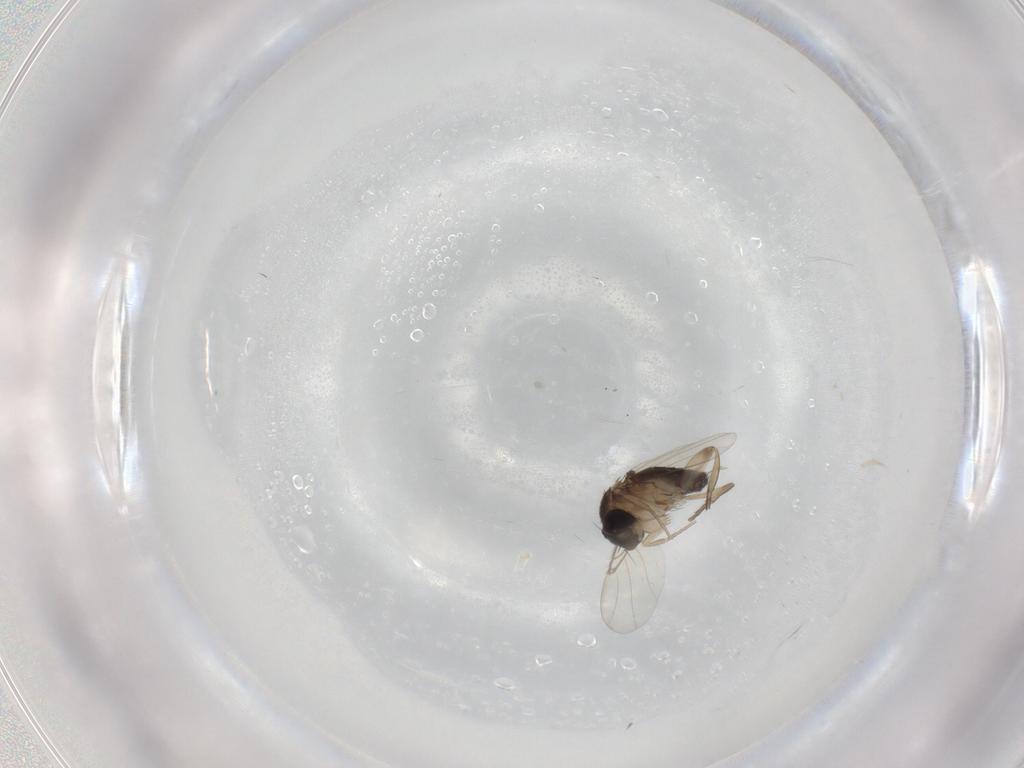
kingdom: Animalia
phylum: Arthropoda
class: Insecta
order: Diptera
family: Phoridae
